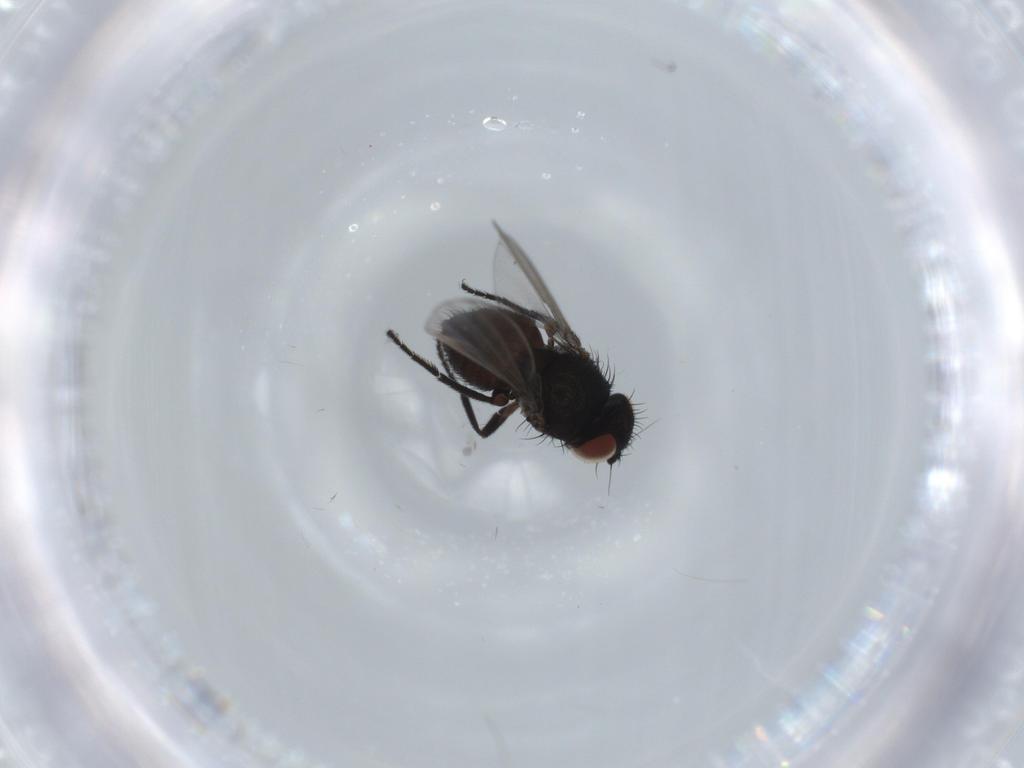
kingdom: Animalia
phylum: Arthropoda
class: Insecta
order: Diptera
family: Milichiidae
